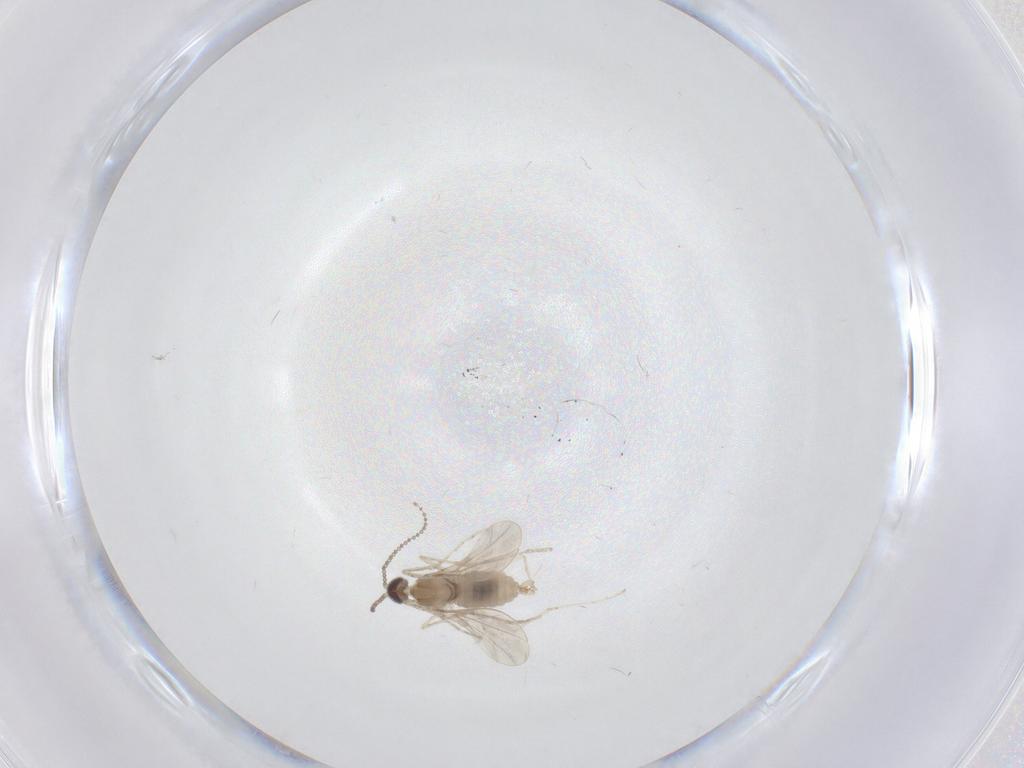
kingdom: Animalia
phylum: Arthropoda
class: Insecta
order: Diptera
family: Cecidomyiidae
